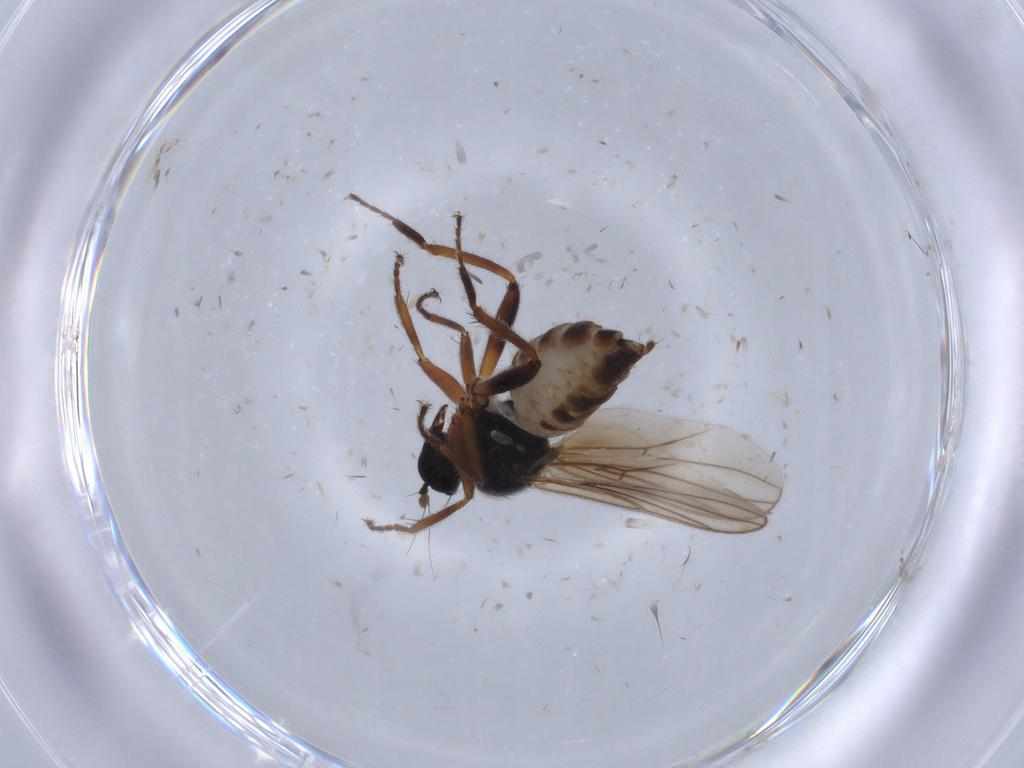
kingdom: Animalia
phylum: Arthropoda
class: Insecta
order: Diptera
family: Hybotidae
